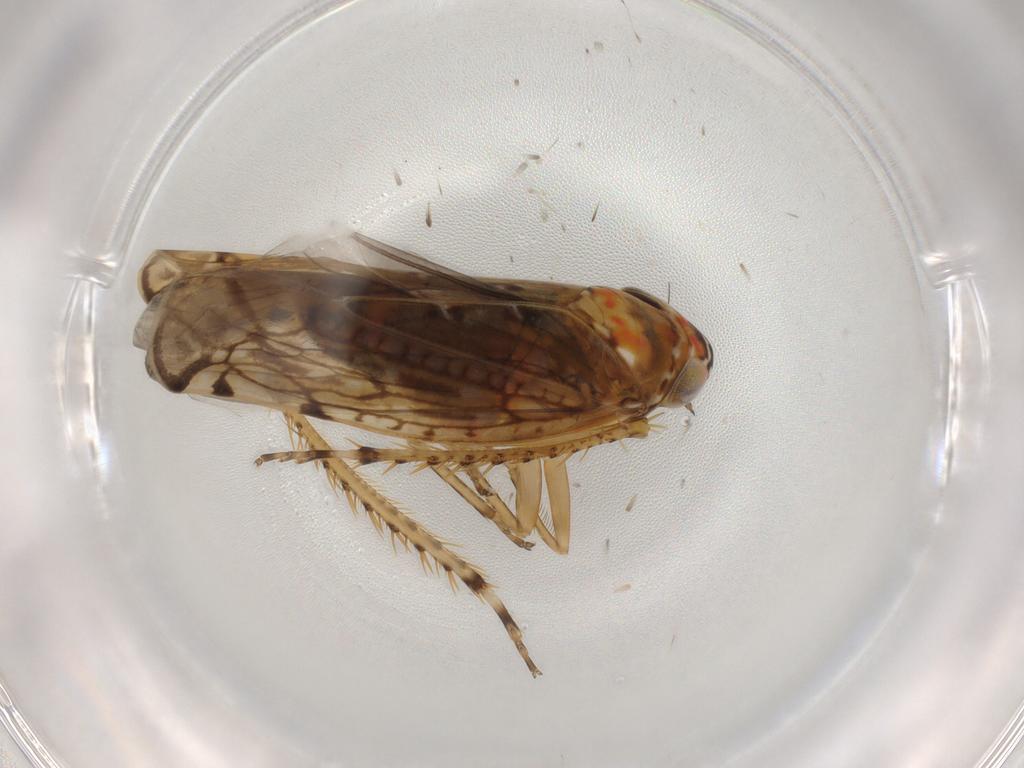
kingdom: Animalia
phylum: Arthropoda
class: Insecta
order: Hemiptera
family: Cicadellidae
